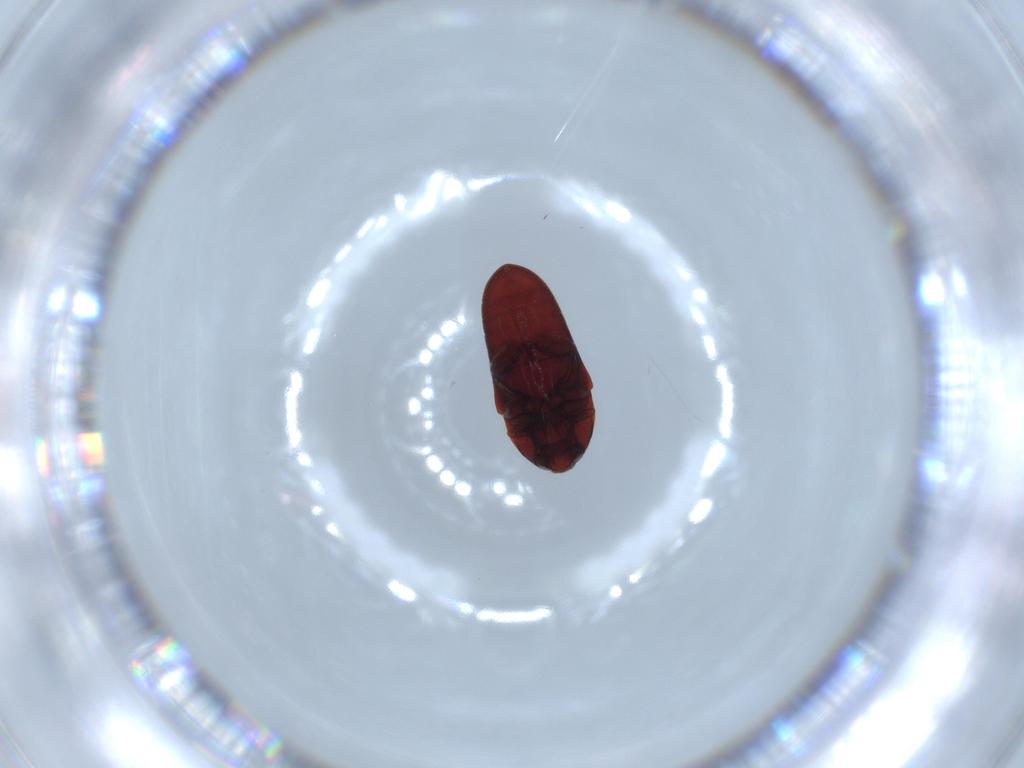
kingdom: Animalia
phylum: Arthropoda
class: Insecta
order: Coleoptera
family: Throscidae
